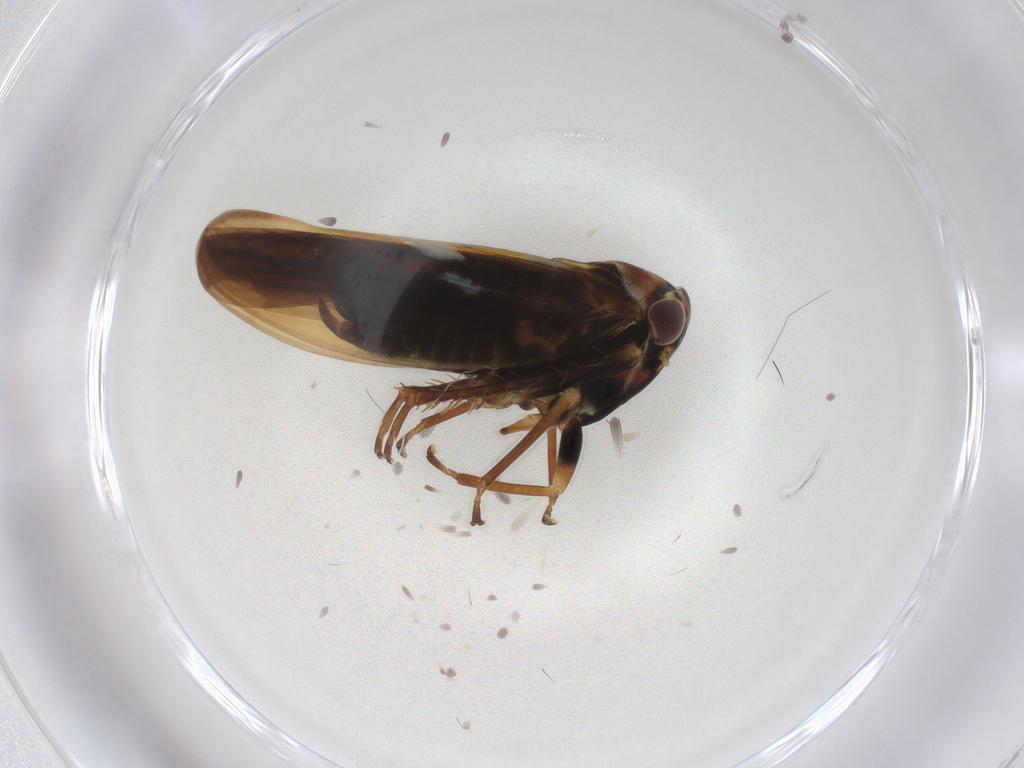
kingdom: Animalia
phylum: Arthropoda
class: Insecta
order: Hemiptera
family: Cicadellidae
